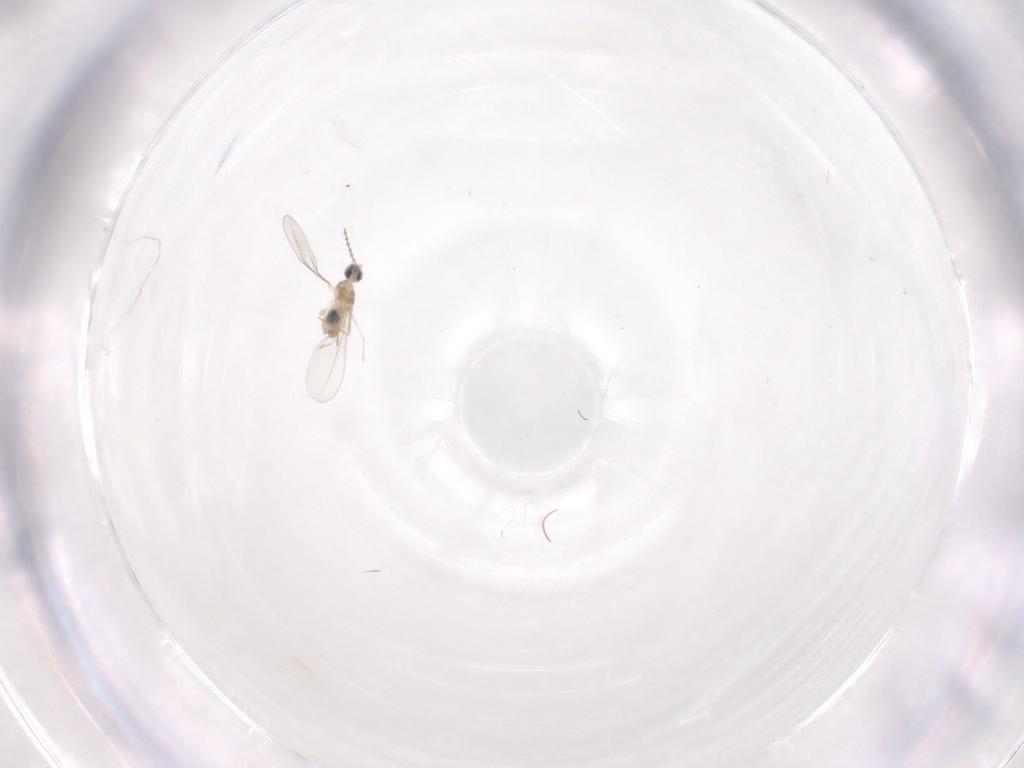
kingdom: Animalia
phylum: Arthropoda
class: Insecta
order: Diptera
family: Cecidomyiidae
